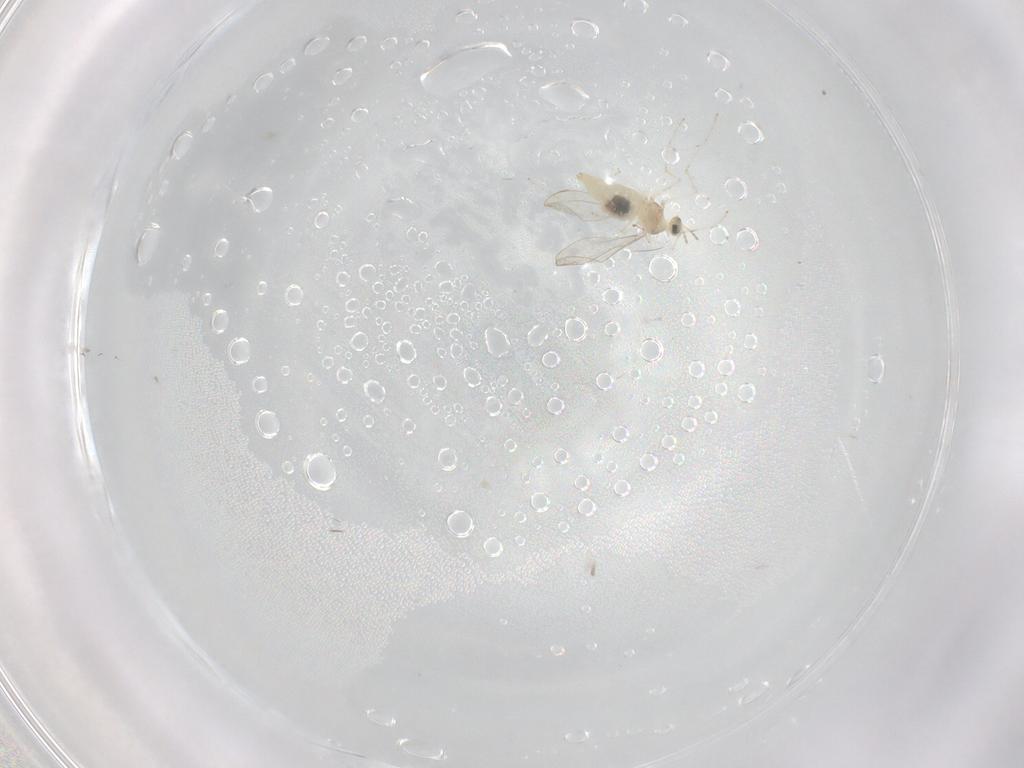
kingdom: Animalia
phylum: Arthropoda
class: Insecta
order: Diptera
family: Cecidomyiidae
